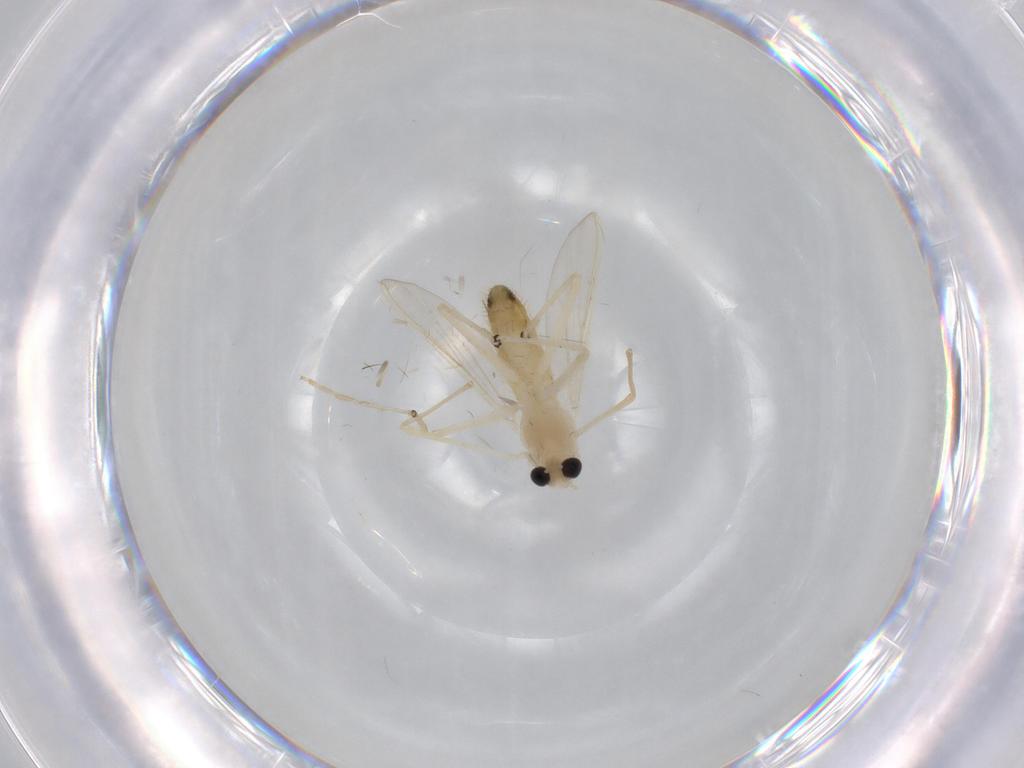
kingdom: Animalia
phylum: Arthropoda
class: Insecta
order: Diptera
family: Chironomidae
